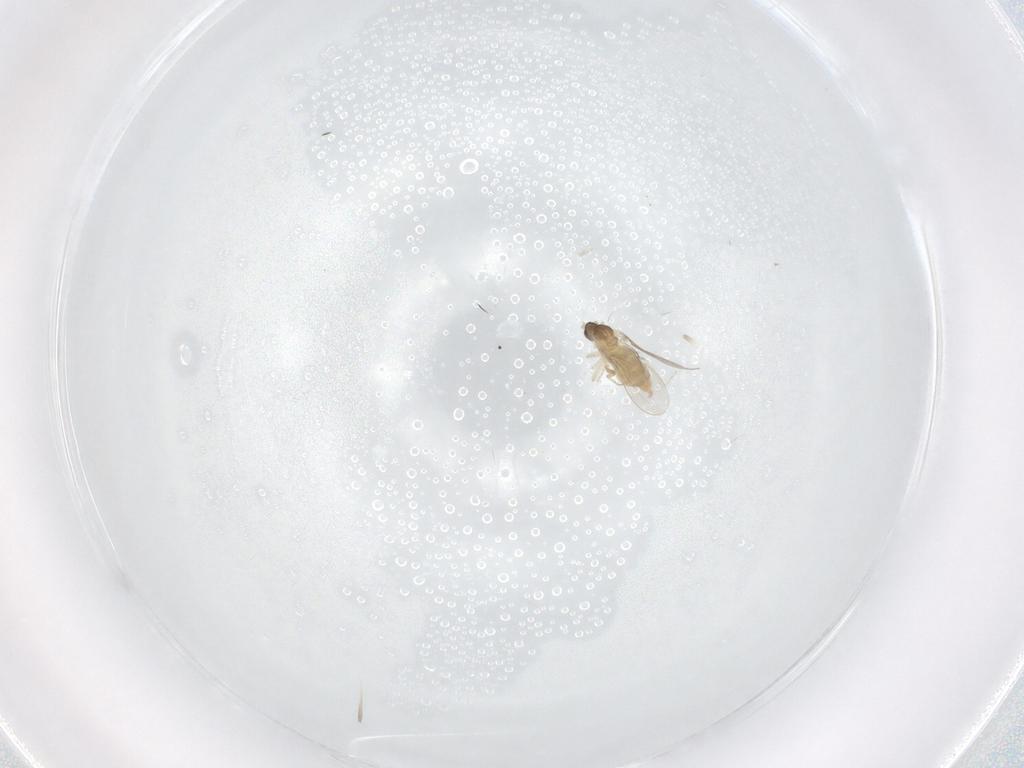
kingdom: Animalia
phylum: Arthropoda
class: Insecta
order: Diptera
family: Cecidomyiidae
